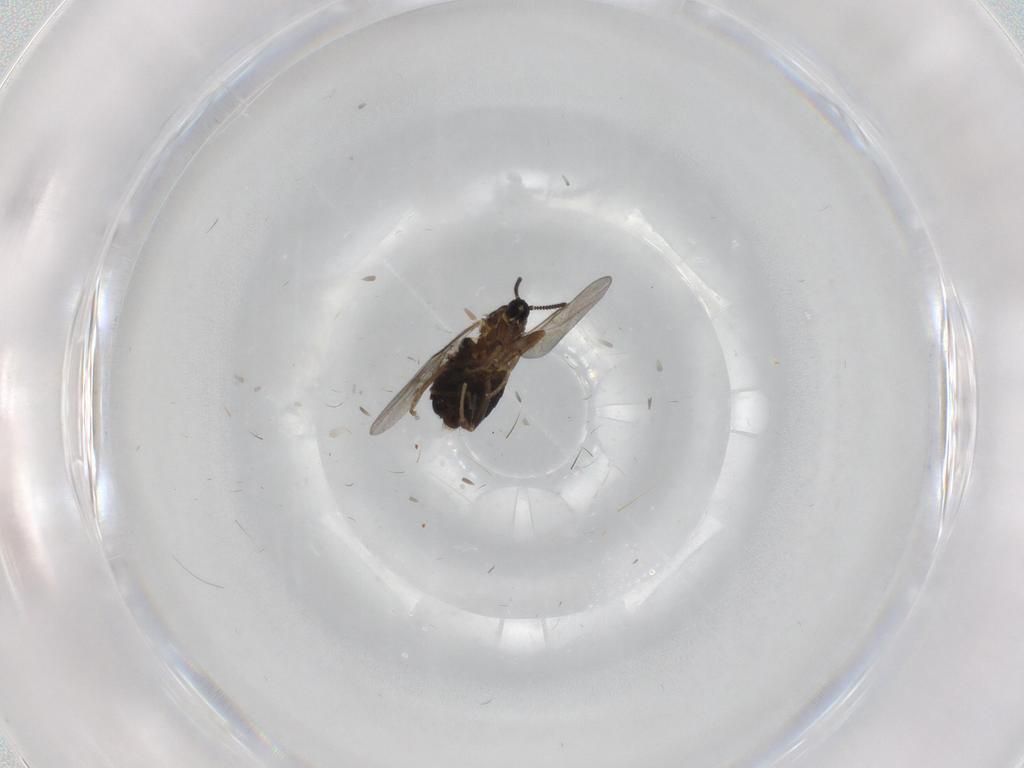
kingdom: Animalia
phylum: Arthropoda
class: Insecta
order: Diptera
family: Scatopsidae
